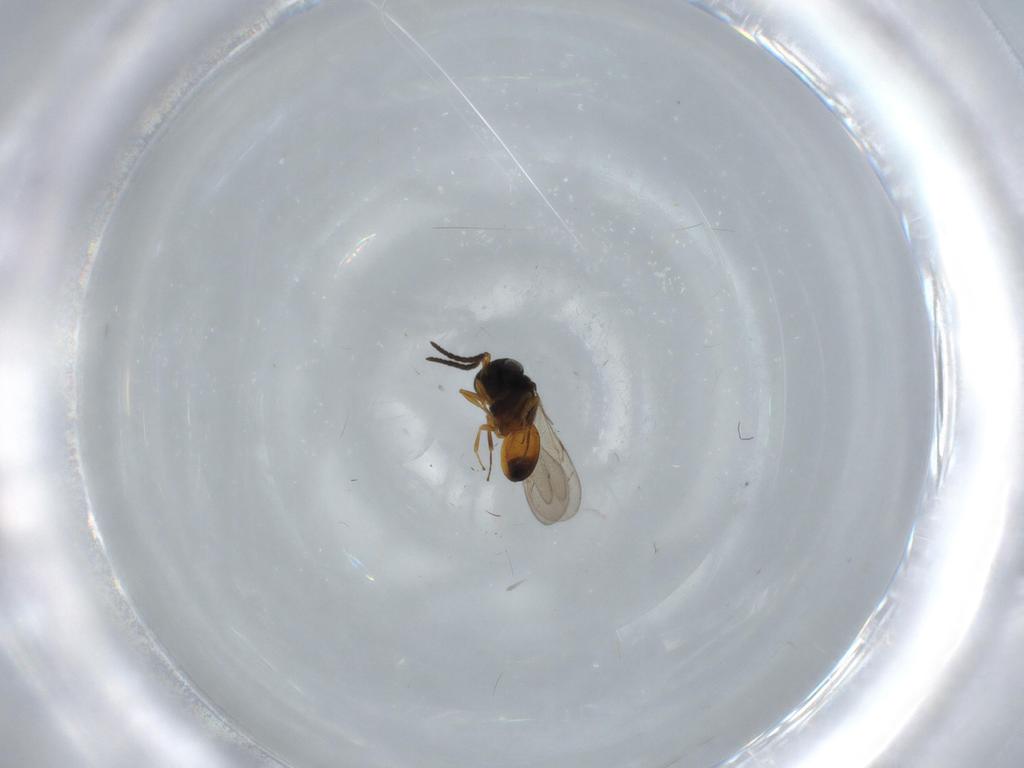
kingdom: Animalia
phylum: Arthropoda
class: Insecta
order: Hymenoptera
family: Scelionidae
